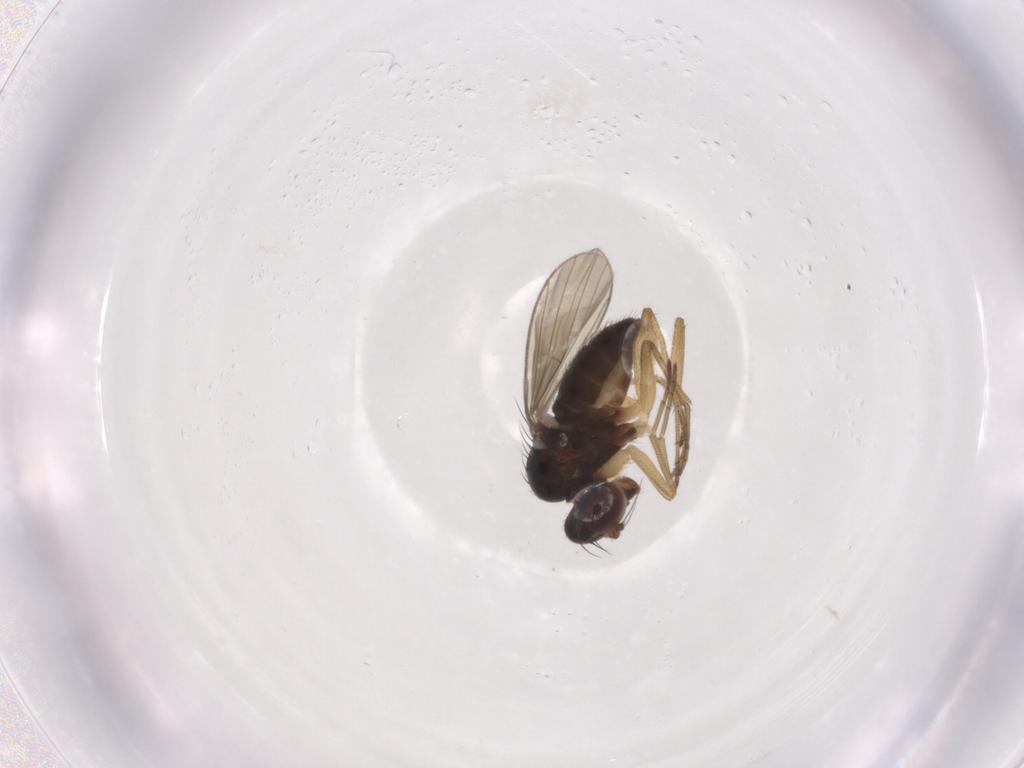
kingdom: Animalia
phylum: Arthropoda
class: Insecta
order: Diptera
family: Dolichopodidae
